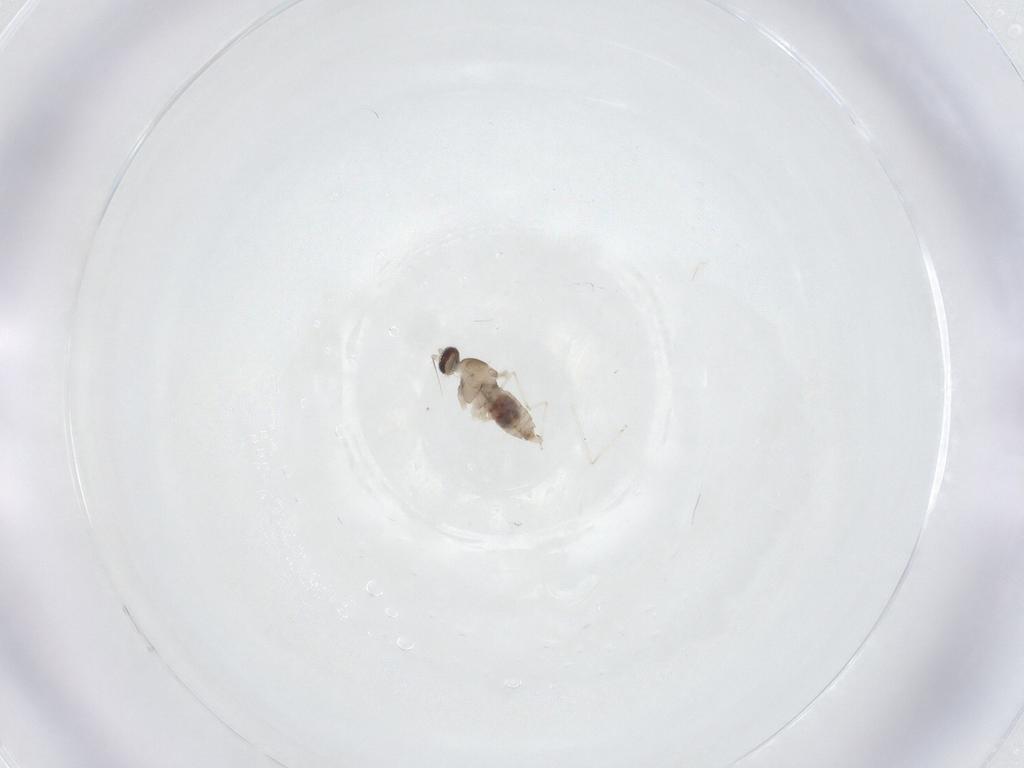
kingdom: Animalia
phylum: Arthropoda
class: Insecta
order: Diptera
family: Cecidomyiidae
